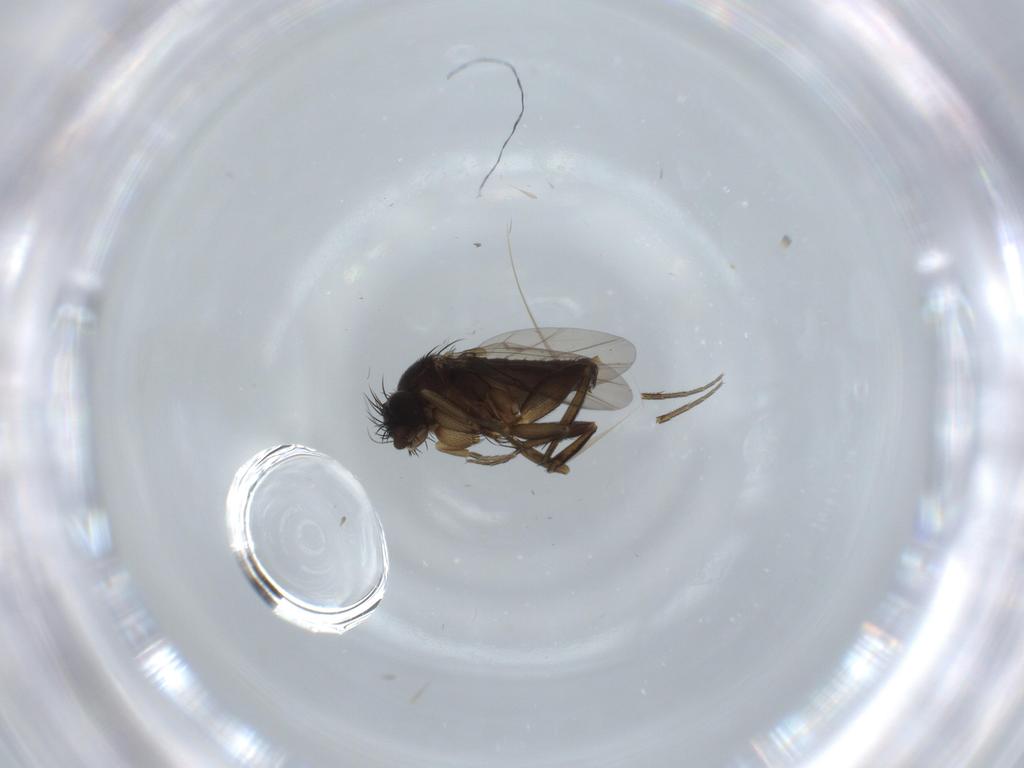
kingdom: Animalia
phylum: Arthropoda
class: Insecta
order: Diptera
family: Phoridae
